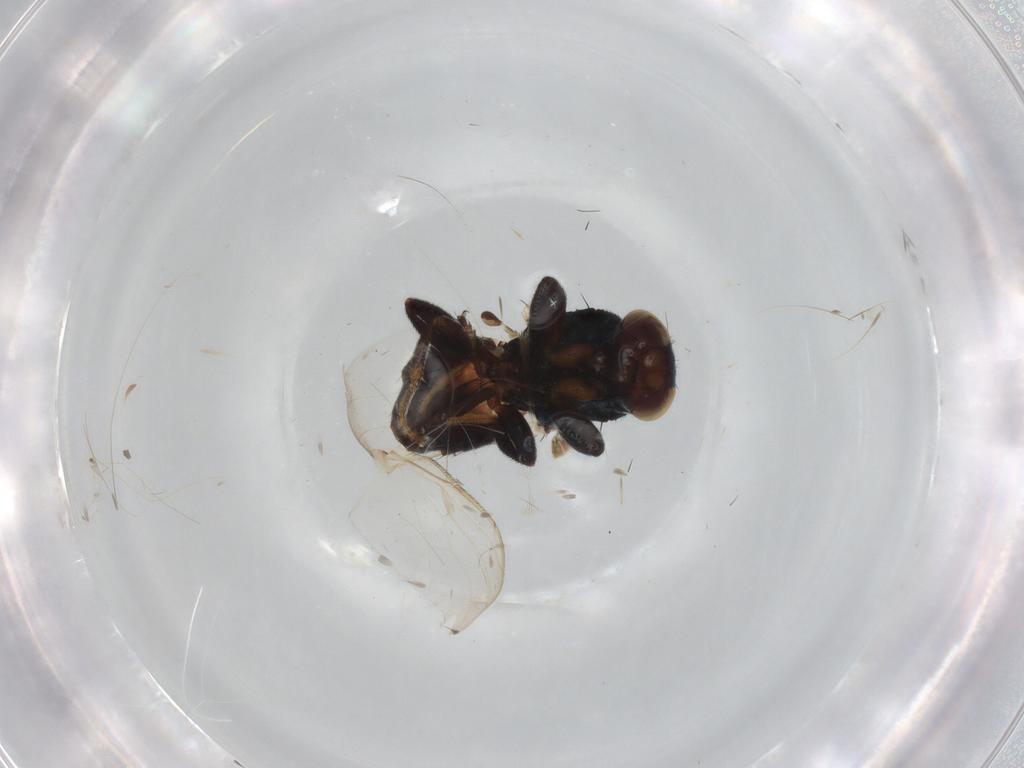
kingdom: Animalia
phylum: Arthropoda
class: Insecta
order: Diptera
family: Chloropidae
